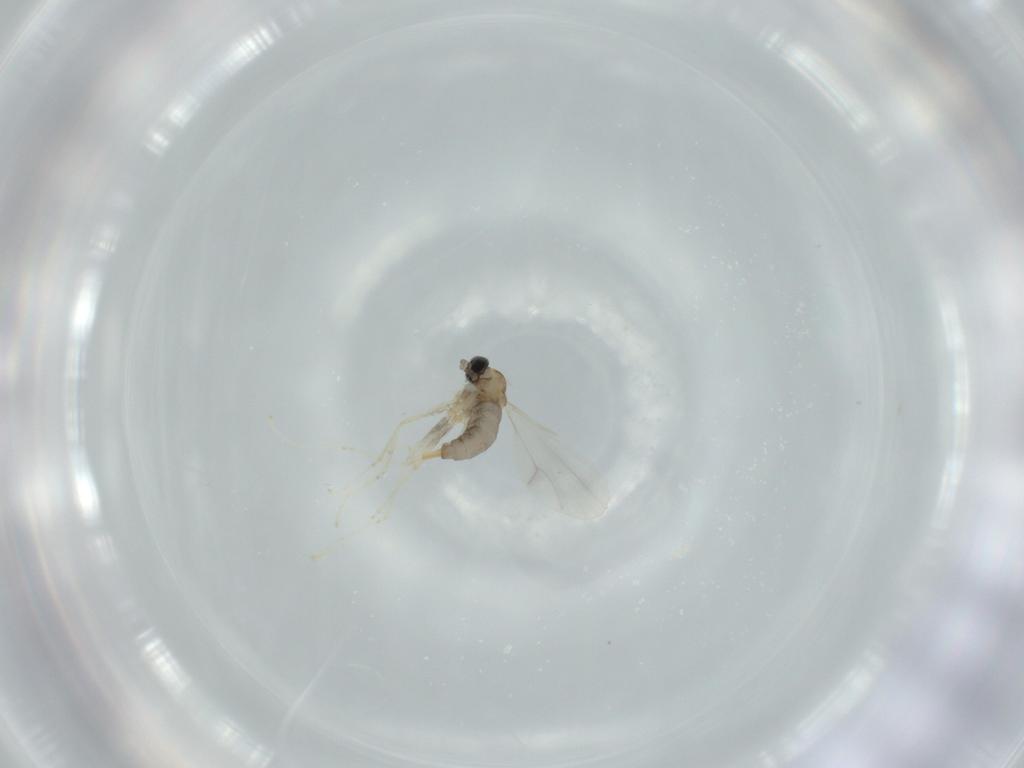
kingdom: Animalia
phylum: Arthropoda
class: Insecta
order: Diptera
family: Cecidomyiidae
